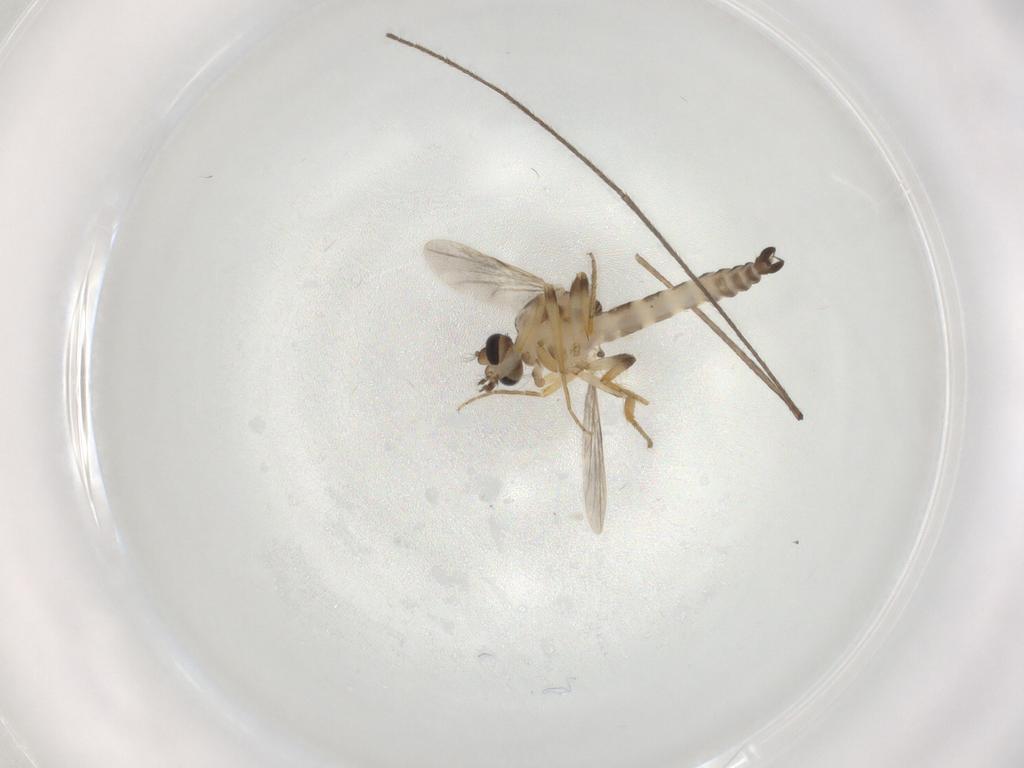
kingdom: Animalia
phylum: Arthropoda
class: Insecta
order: Diptera
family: Ceratopogonidae
